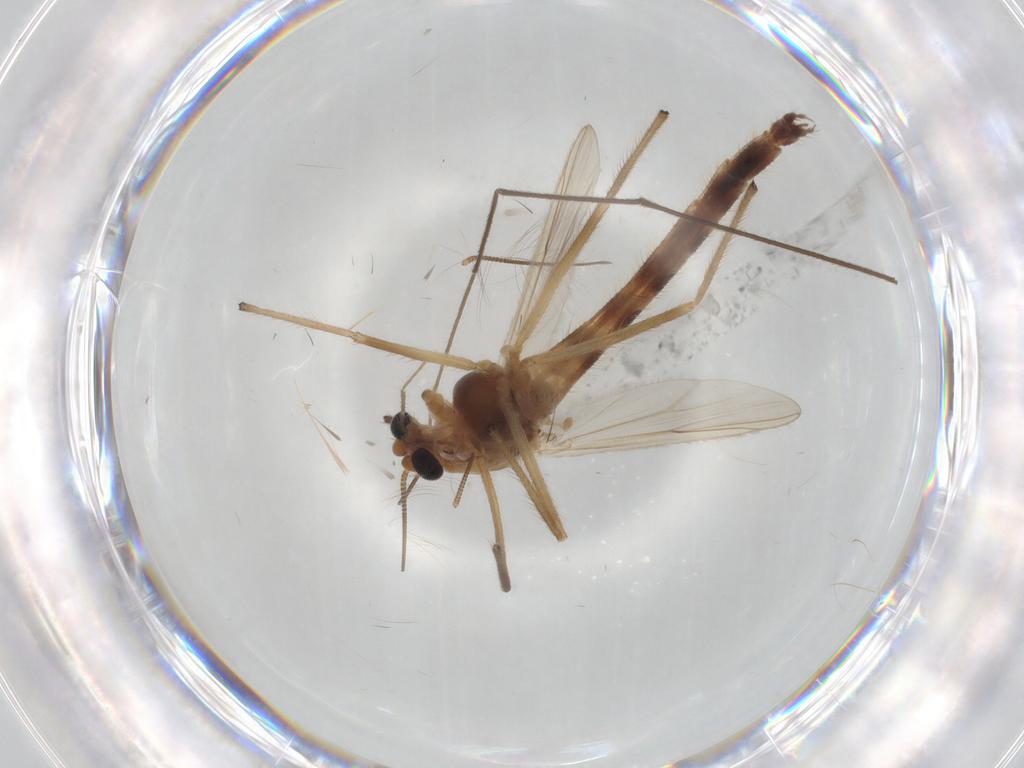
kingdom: Animalia
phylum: Arthropoda
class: Insecta
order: Diptera
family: Chironomidae
